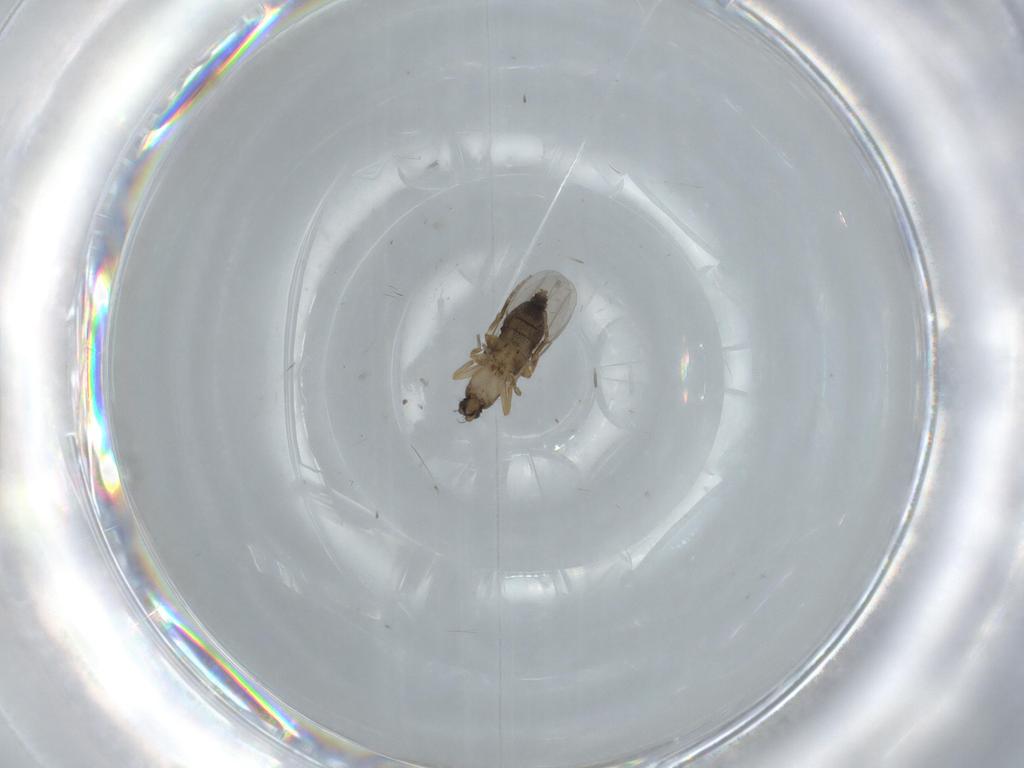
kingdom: Animalia
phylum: Arthropoda
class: Insecta
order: Diptera
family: Phoridae
